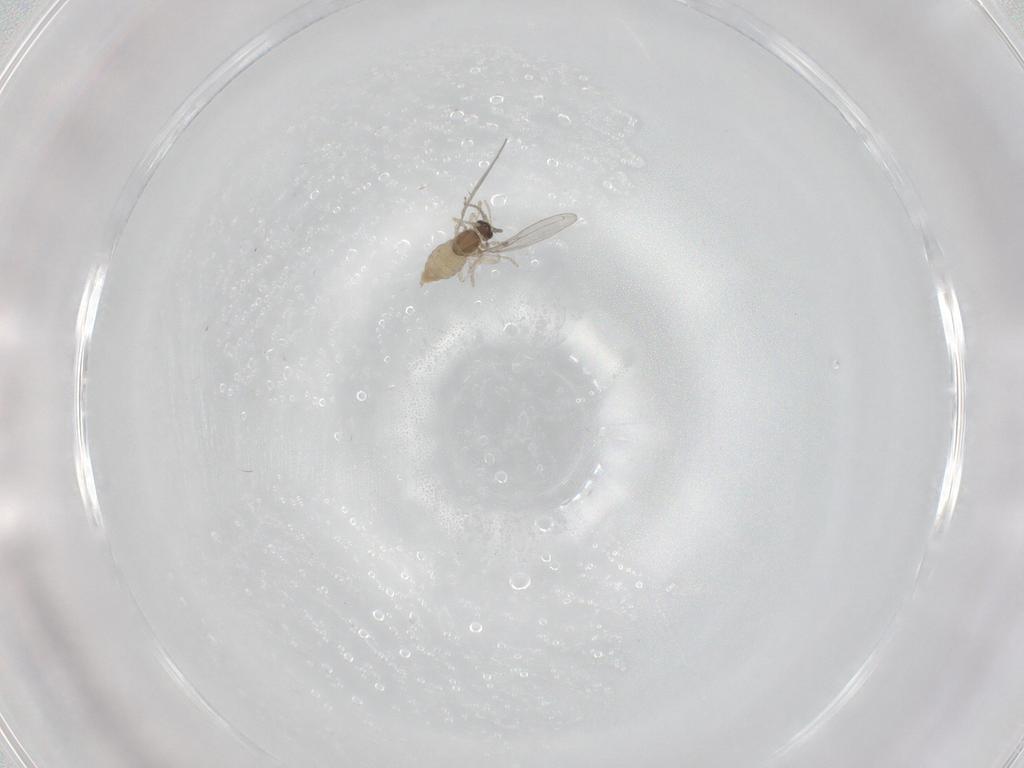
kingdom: Animalia
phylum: Arthropoda
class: Insecta
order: Diptera
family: Cecidomyiidae
